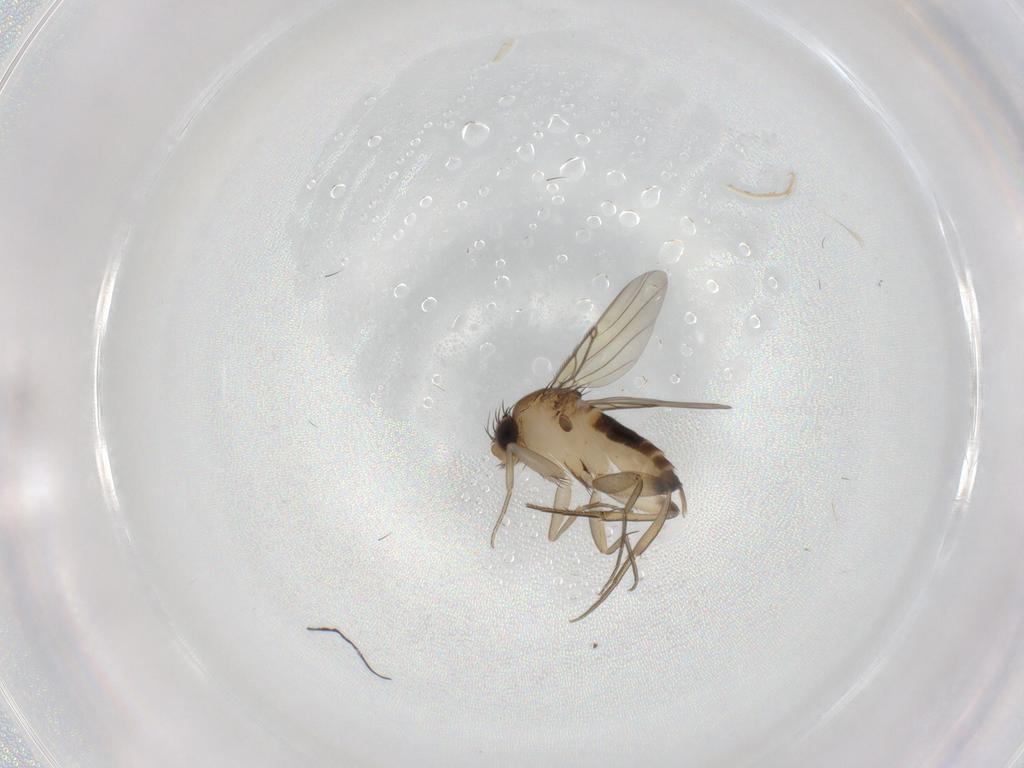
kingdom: Animalia
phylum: Arthropoda
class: Insecta
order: Diptera
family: Phoridae
